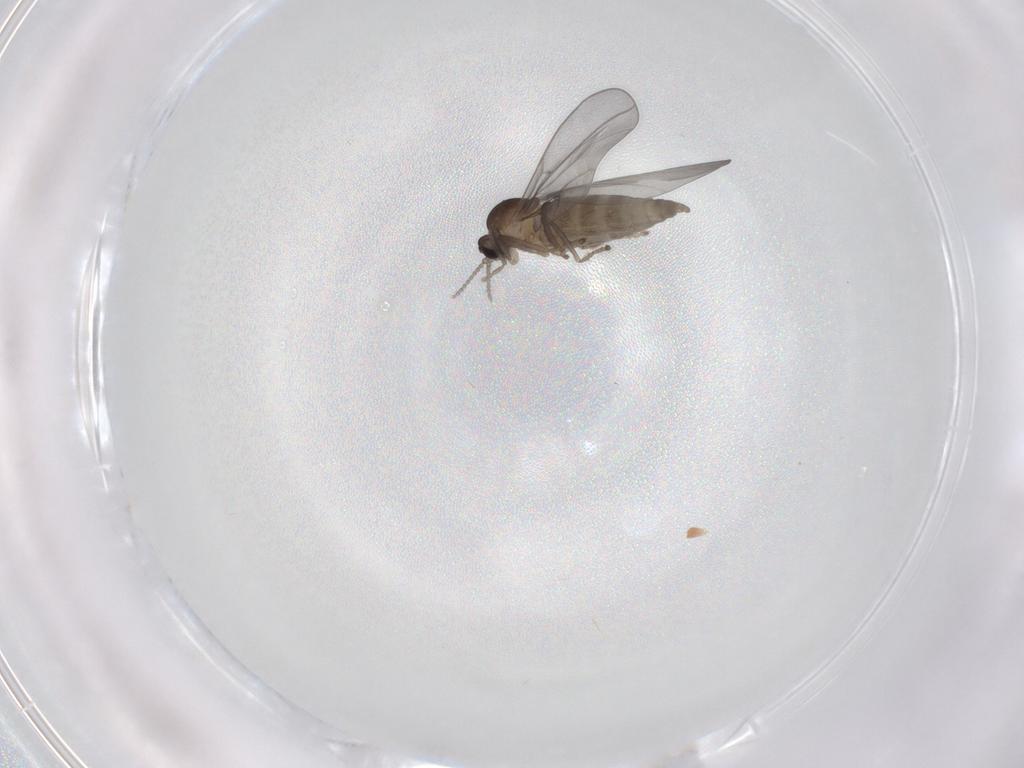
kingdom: Animalia
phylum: Arthropoda
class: Insecta
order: Diptera
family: Cecidomyiidae
